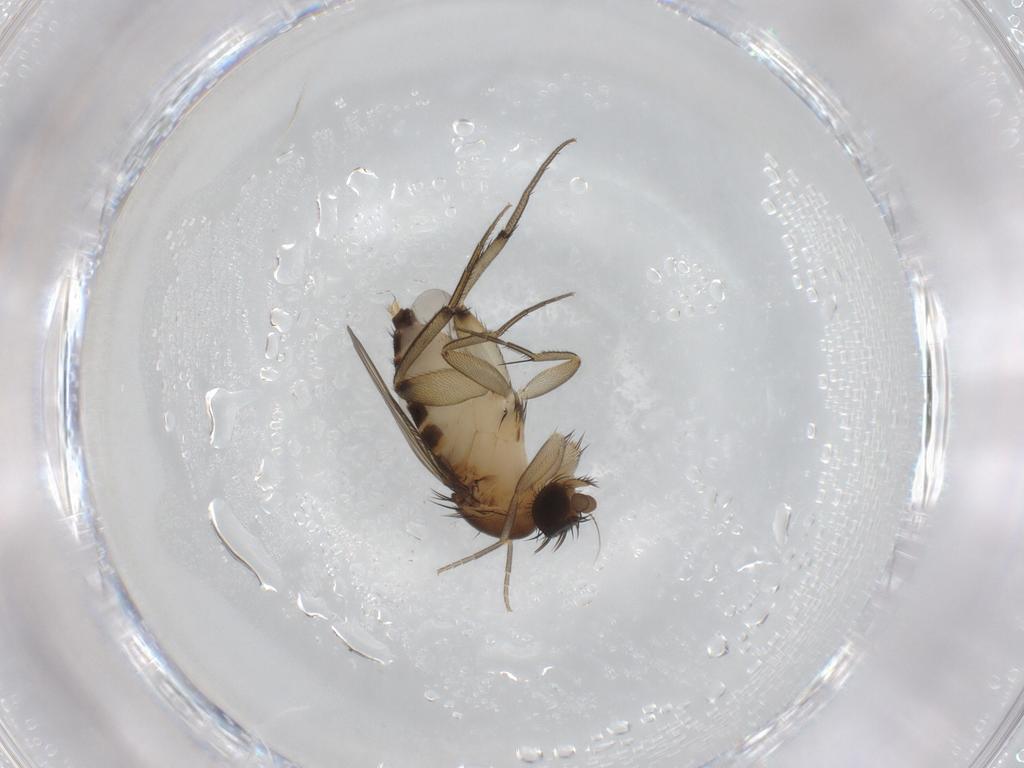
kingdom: Animalia
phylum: Arthropoda
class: Insecta
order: Diptera
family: Phoridae
